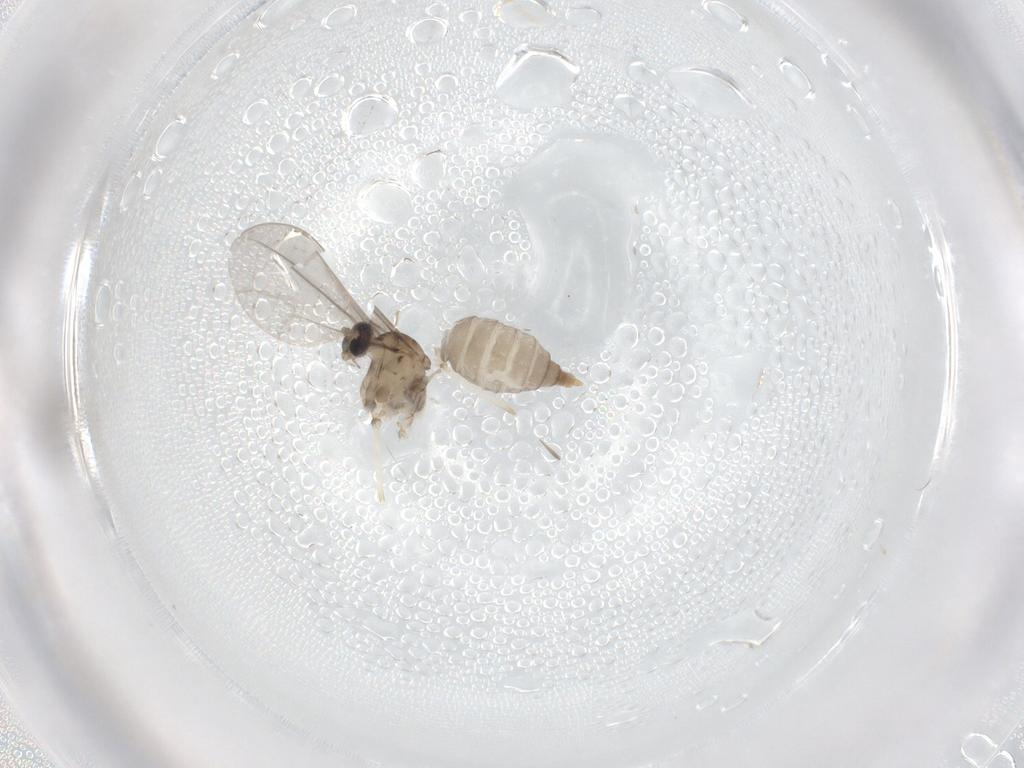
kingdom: Animalia
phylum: Arthropoda
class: Insecta
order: Diptera
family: Cecidomyiidae
